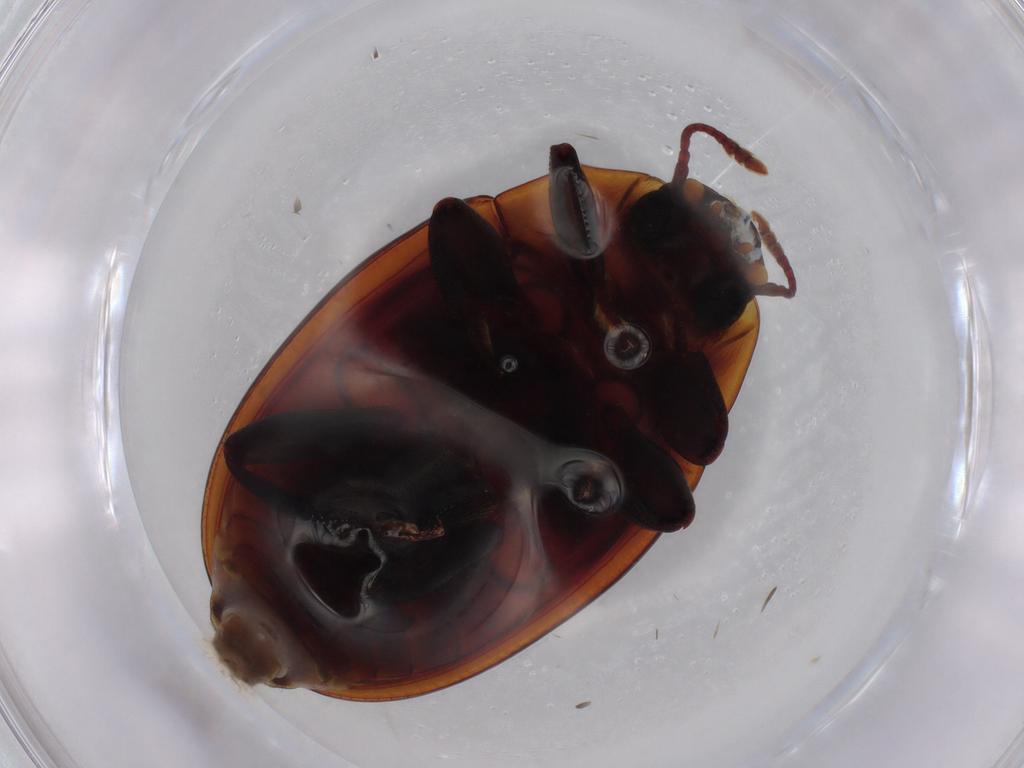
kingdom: Animalia
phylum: Arthropoda
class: Insecta
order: Coleoptera
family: Zopheridae
